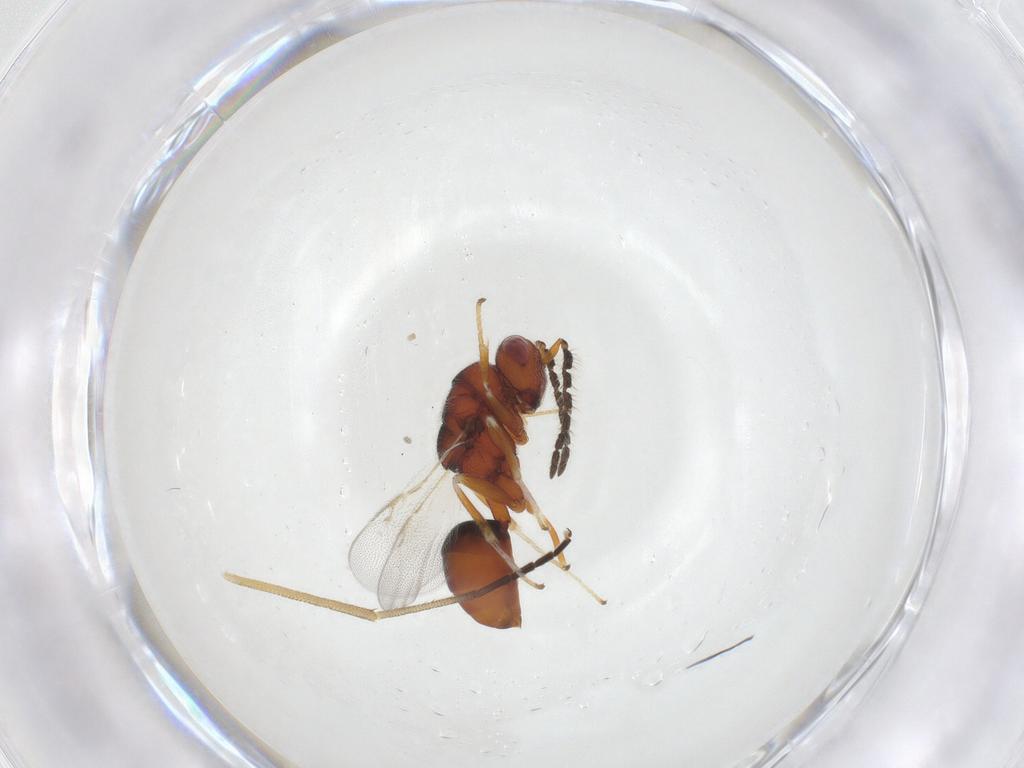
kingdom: Animalia
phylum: Arthropoda
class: Insecta
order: Hymenoptera
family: Eurytomidae
